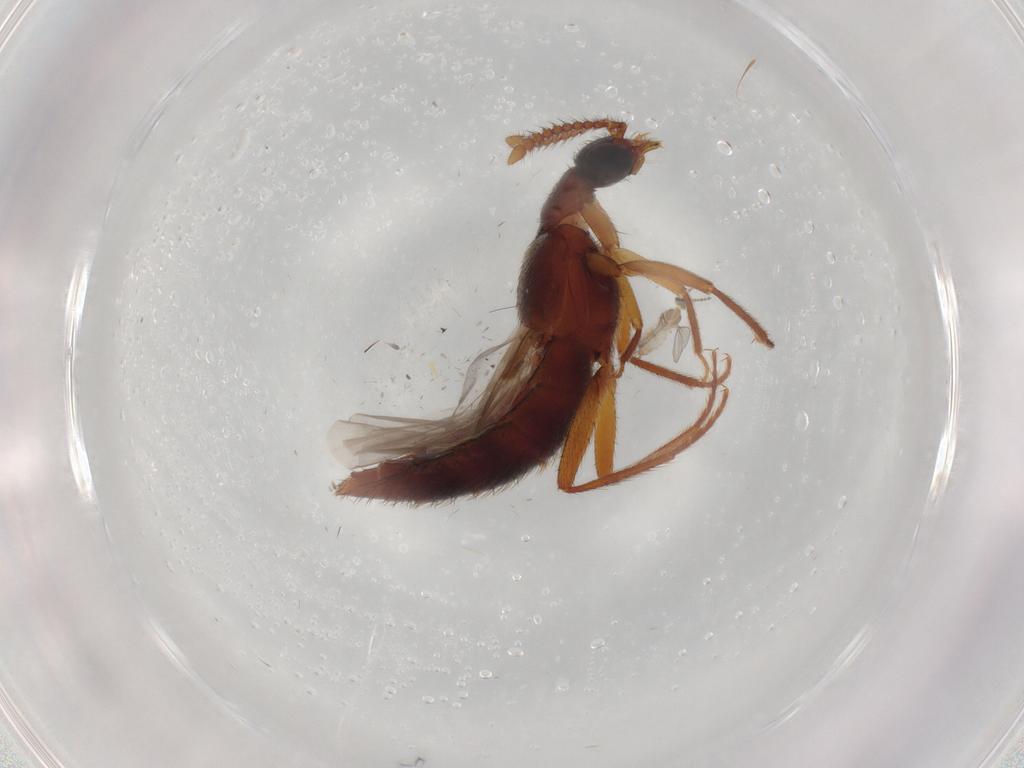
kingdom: Animalia
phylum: Arthropoda
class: Insecta
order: Coleoptera
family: Staphylinidae
